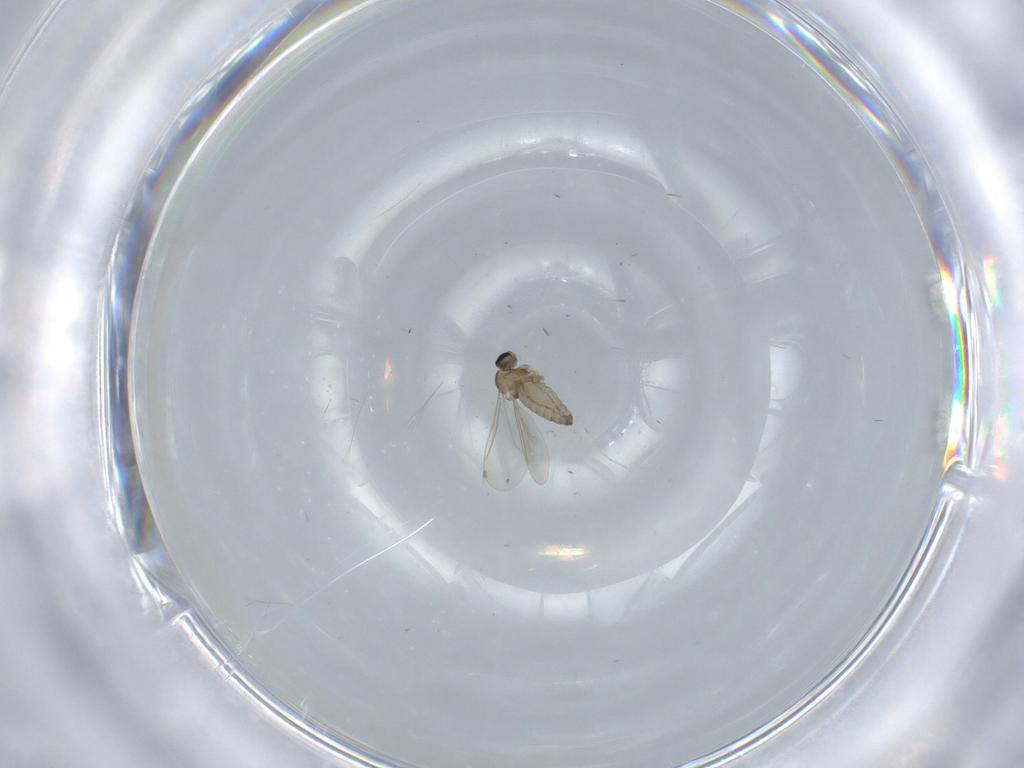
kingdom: Animalia
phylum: Arthropoda
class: Insecta
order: Diptera
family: Cecidomyiidae
